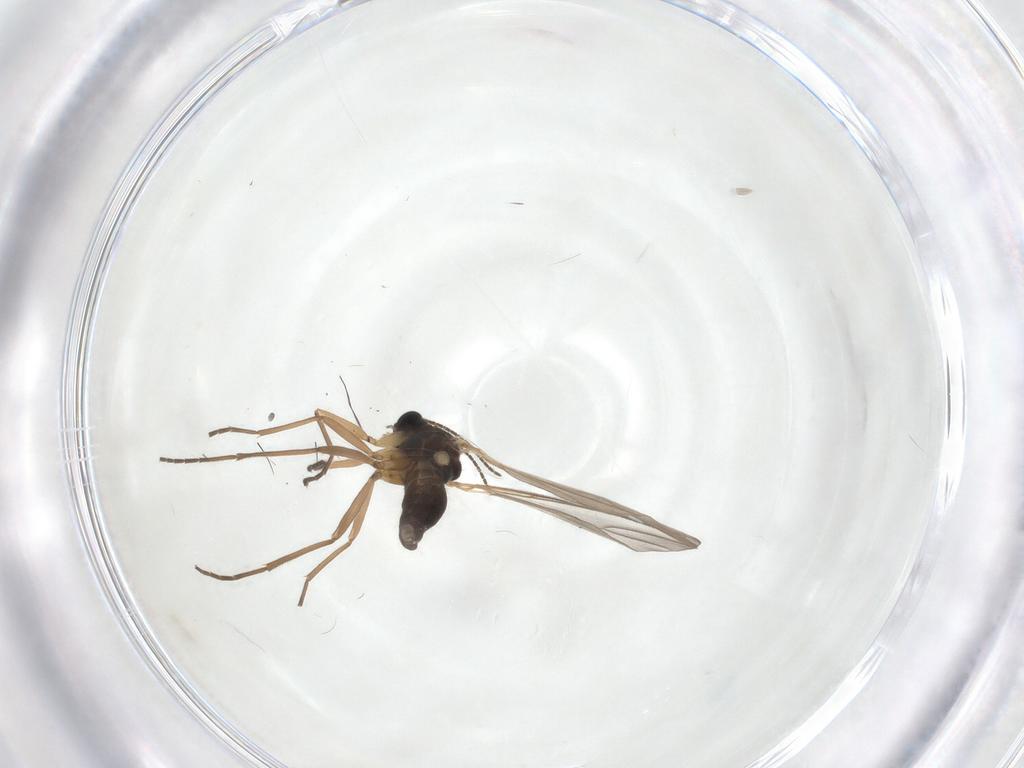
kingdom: Animalia
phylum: Arthropoda
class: Insecta
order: Diptera
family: Sciaridae
